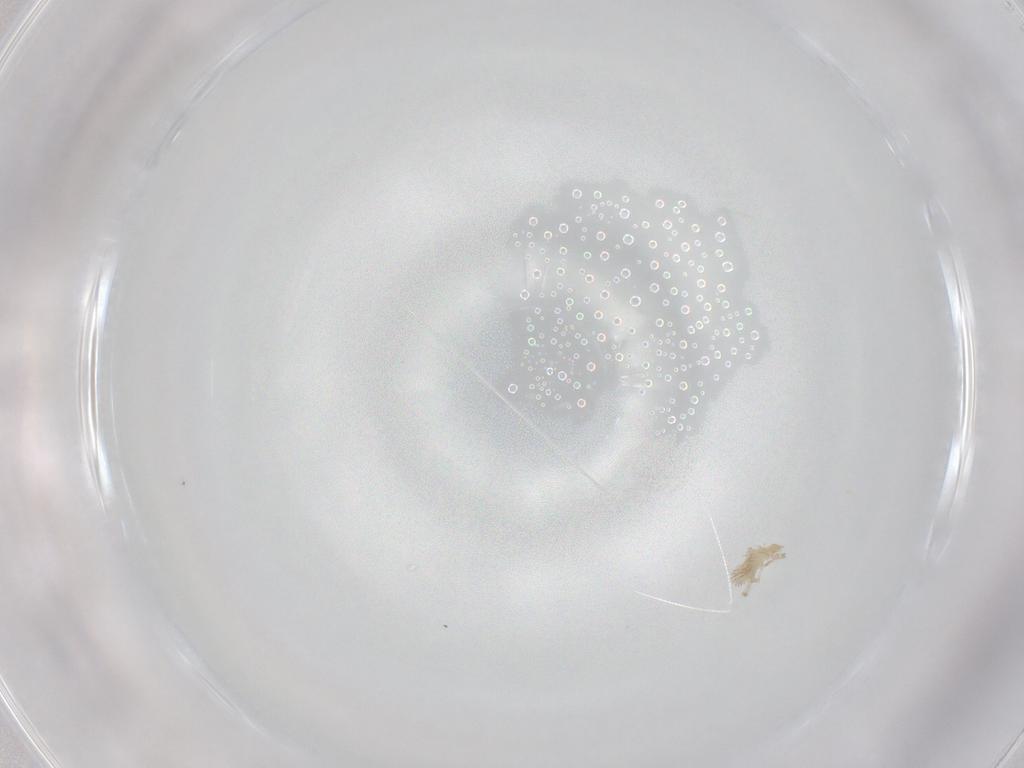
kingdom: Animalia
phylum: Arthropoda
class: Arachnida
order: Trombidiformes
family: Erythraeidae
